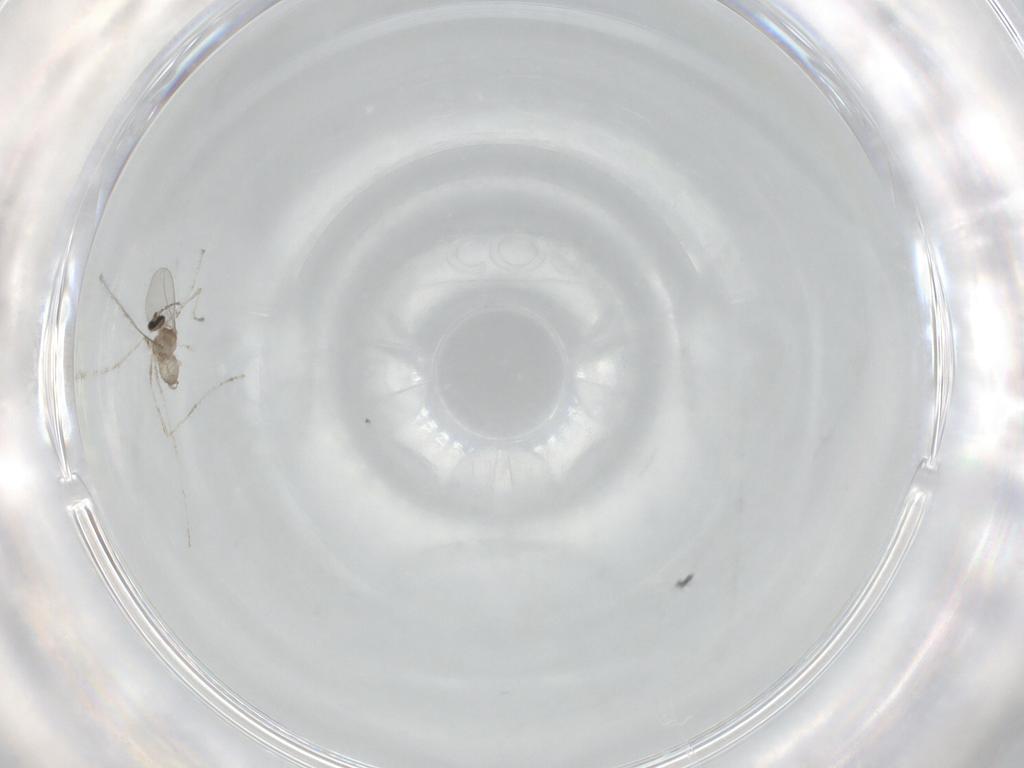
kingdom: Animalia
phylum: Arthropoda
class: Insecta
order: Diptera
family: Cecidomyiidae
